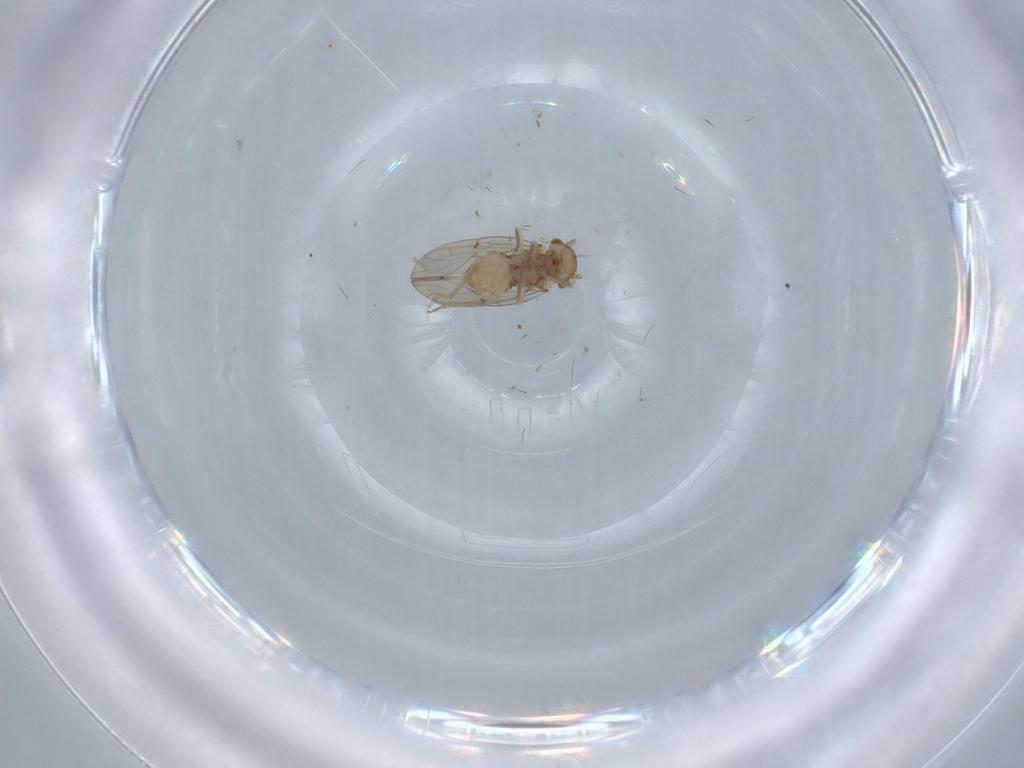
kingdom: Animalia
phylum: Arthropoda
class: Insecta
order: Psocodea
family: Ectopsocidae
